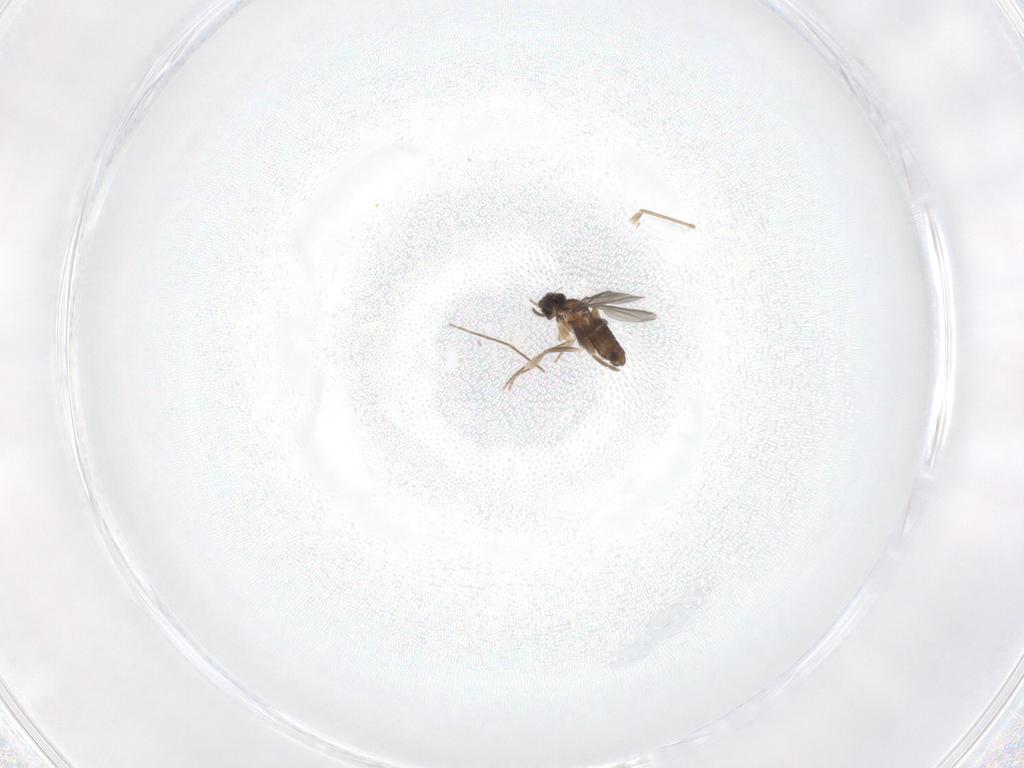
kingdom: Animalia
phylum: Arthropoda
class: Insecta
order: Diptera
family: Chironomidae
